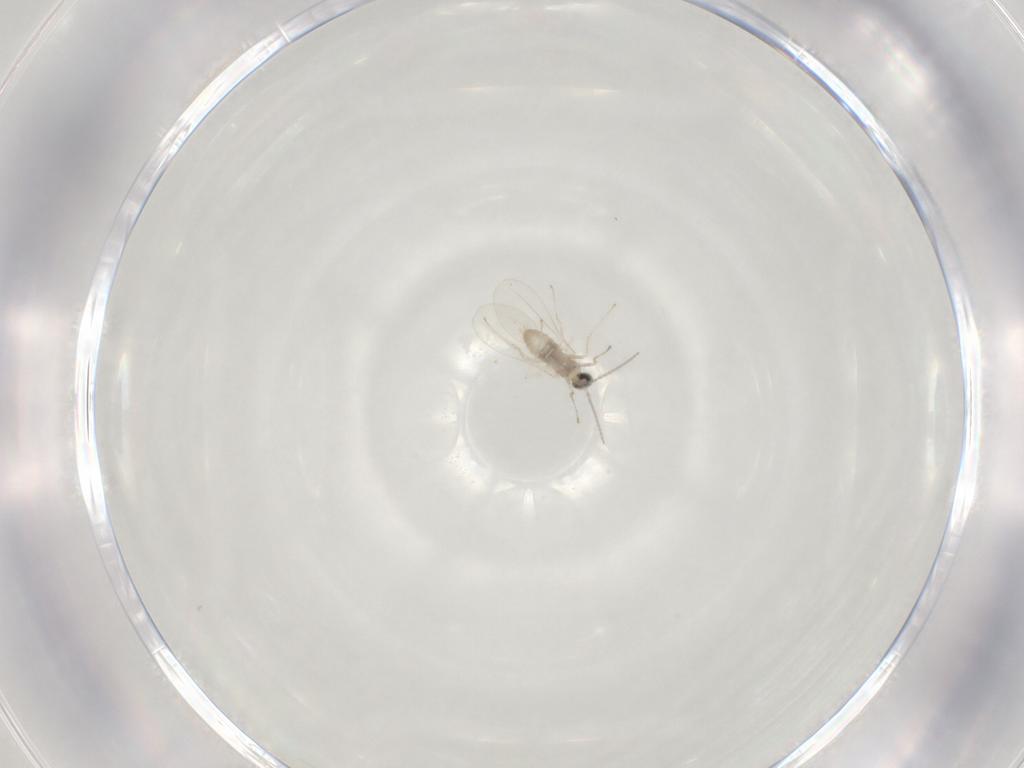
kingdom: Animalia
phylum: Arthropoda
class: Insecta
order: Diptera
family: Cecidomyiidae
